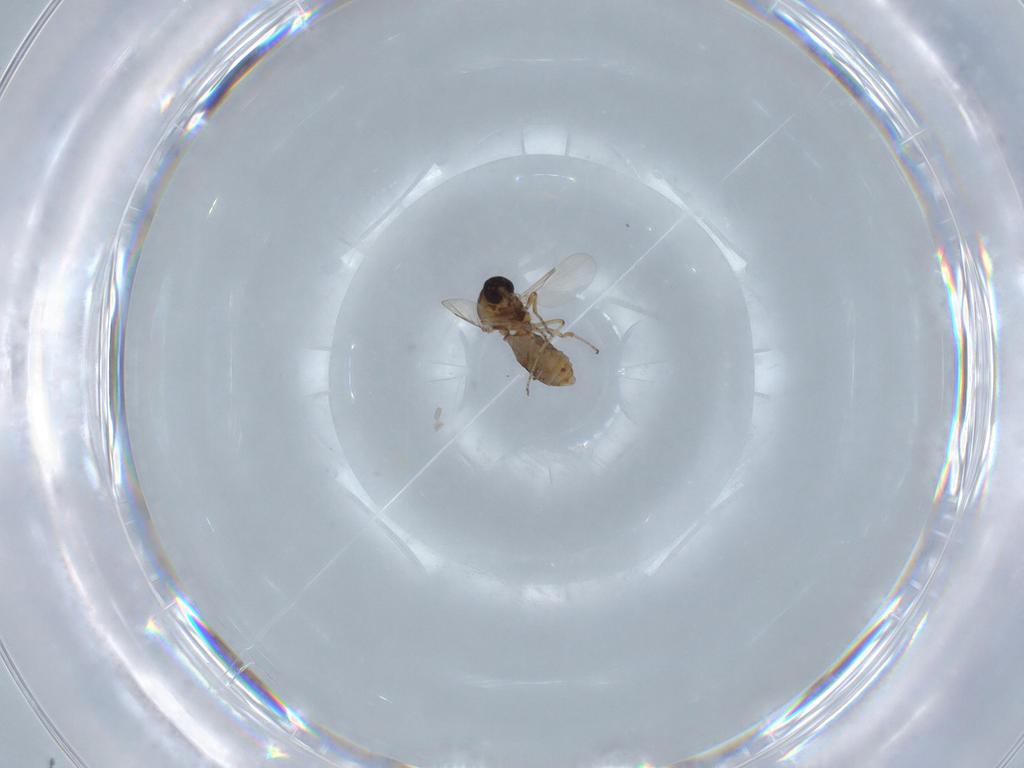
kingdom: Animalia
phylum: Arthropoda
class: Insecta
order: Diptera
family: Ceratopogonidae
